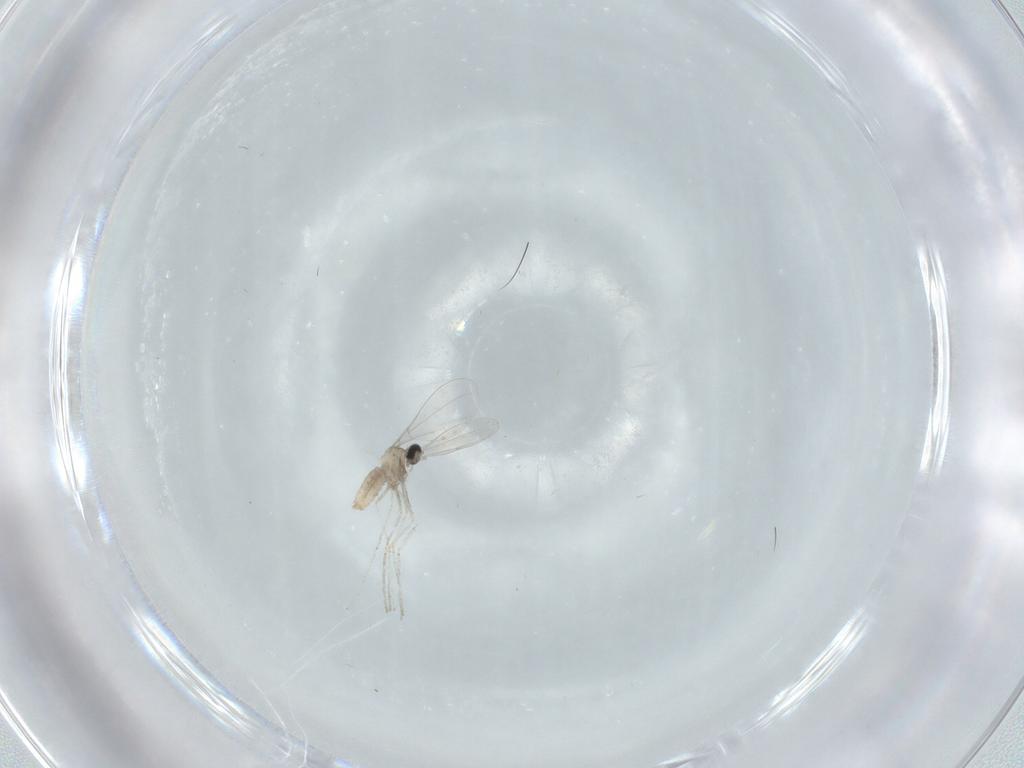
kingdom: Animalia
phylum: Arthropoda
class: Insecta
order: Diptera
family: Cecidomyiidae
